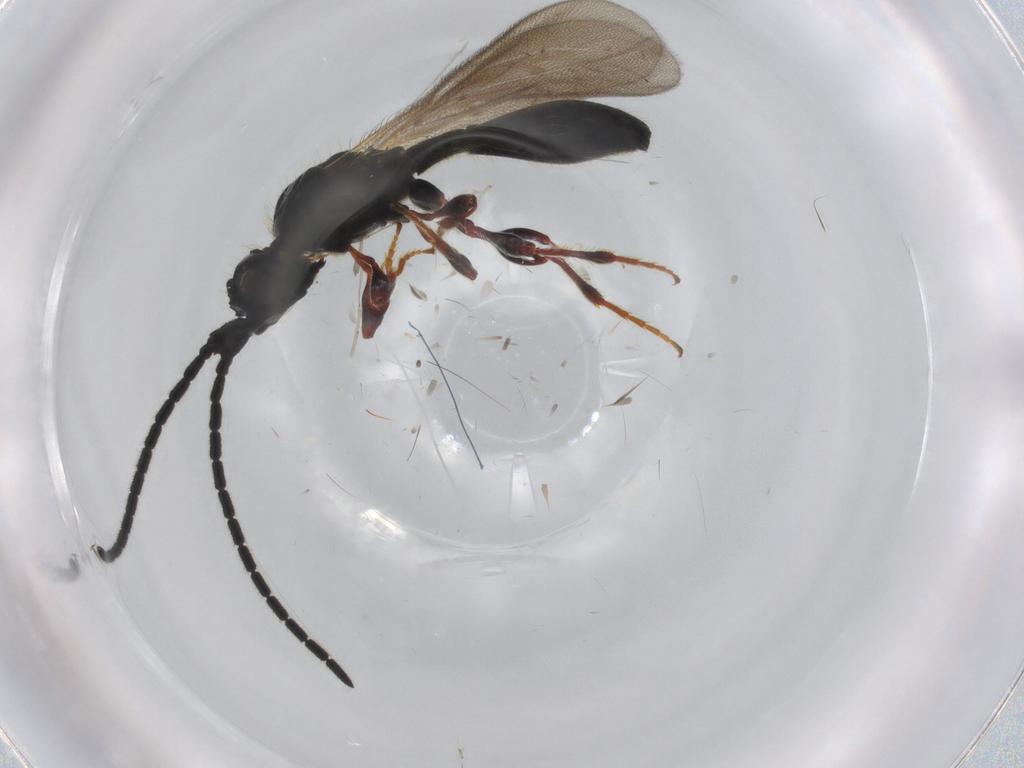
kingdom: Animalia
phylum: Arthropoda
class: Insecta
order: Hymenoptera
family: Diapriidae
